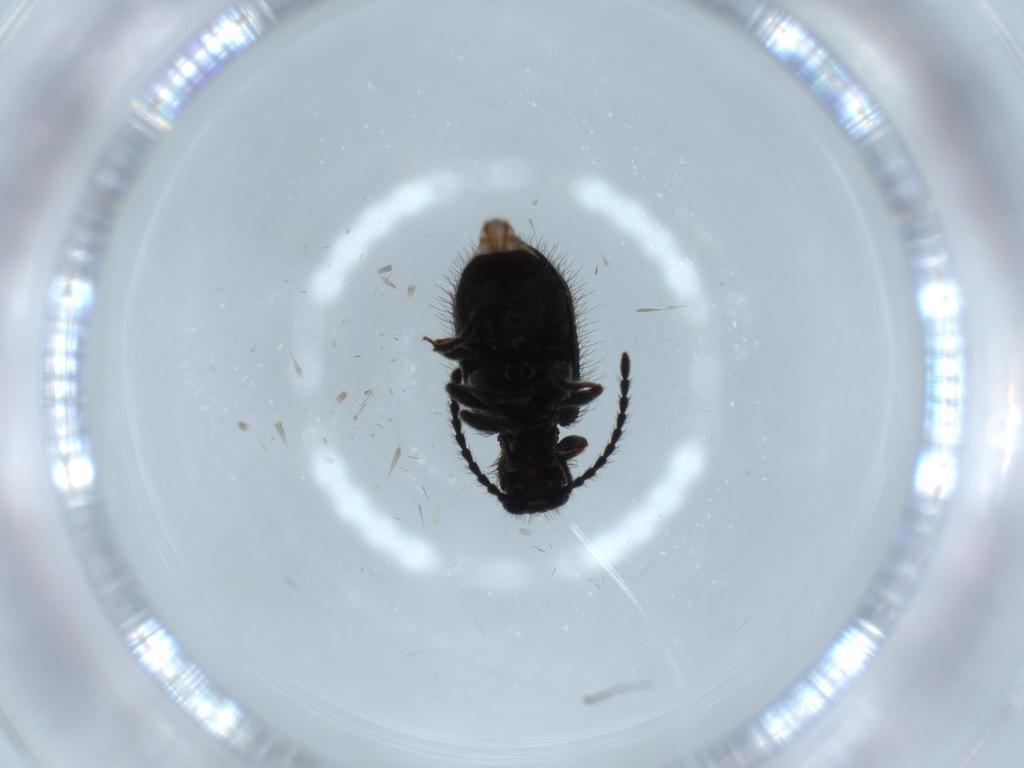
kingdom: Animalia
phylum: Arthropoda
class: Insecta
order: Coleoptera
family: Ptinidae
